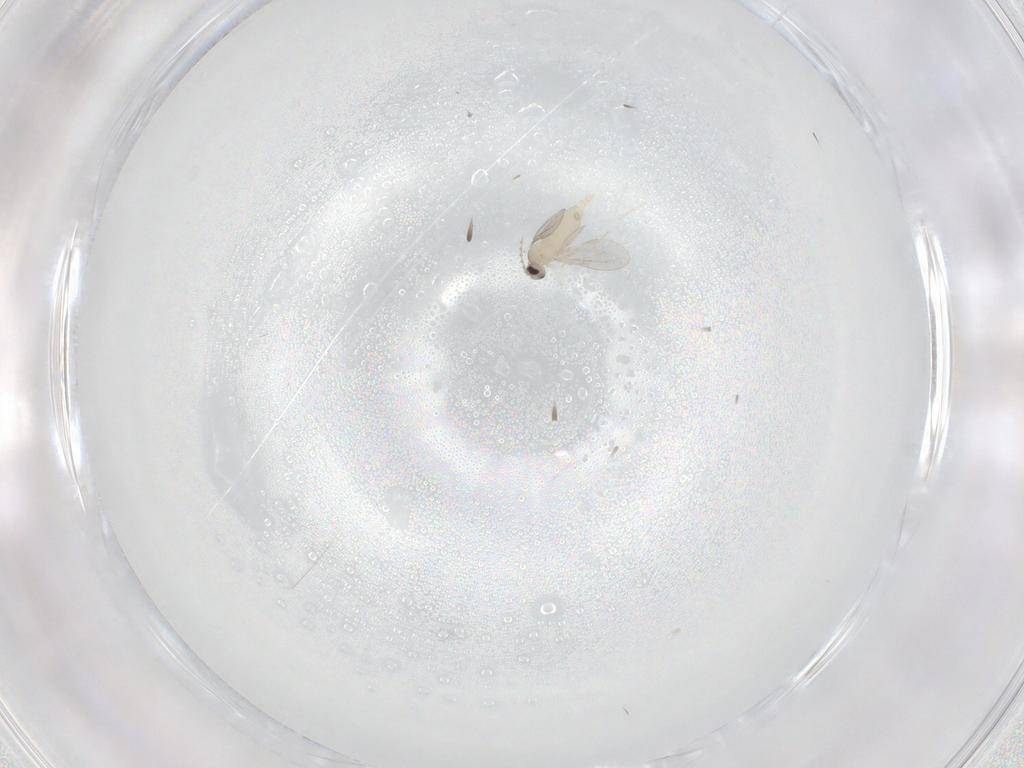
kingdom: Animalia
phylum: Arthropoda
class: Insecta
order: Diptera
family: Cecidomyiidae
